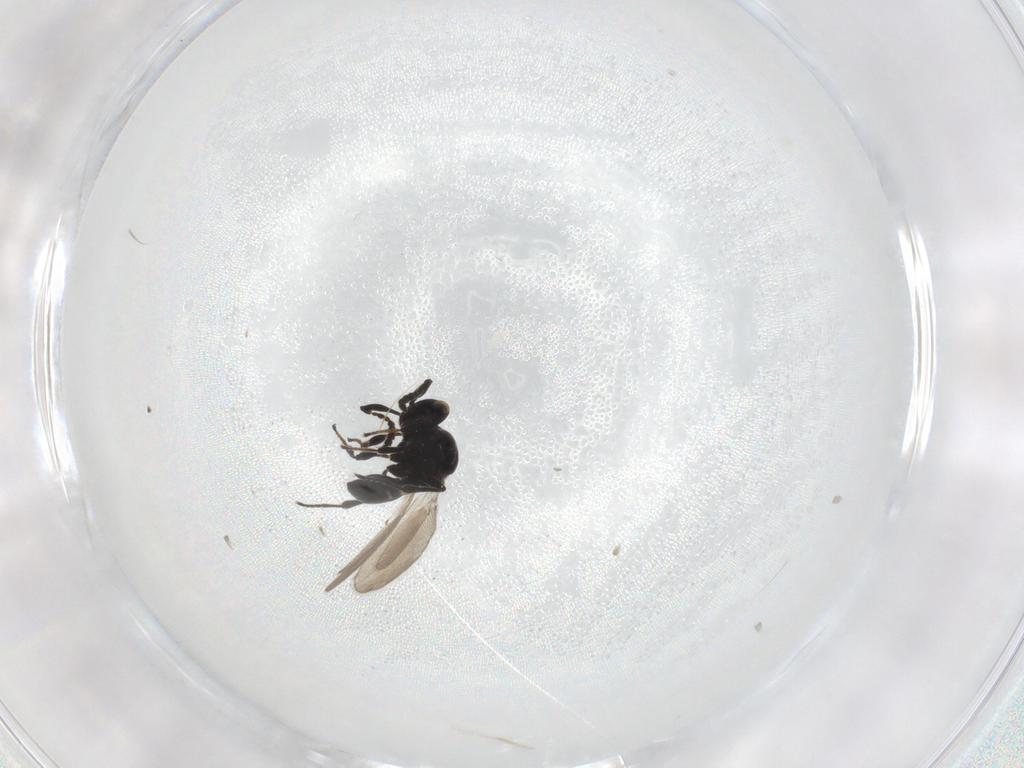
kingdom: Animalia
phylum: Arthropoda
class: Insecta
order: Hymenoptera
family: Platygastridae
